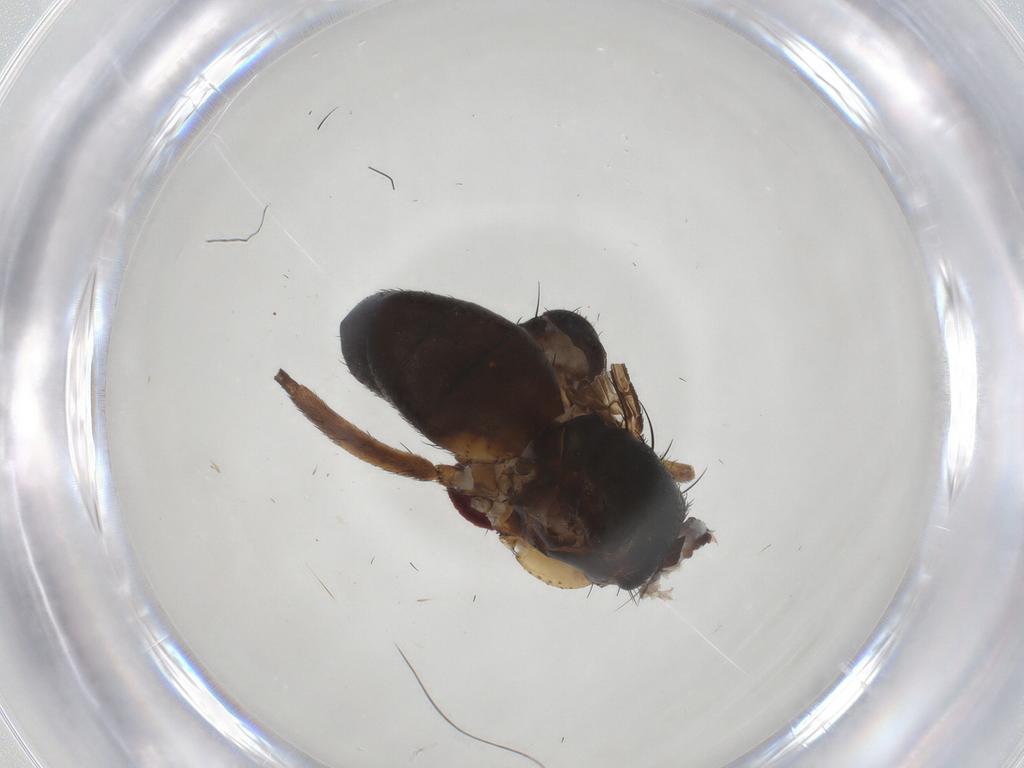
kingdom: Animalia
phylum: Arthropoda
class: Insecta
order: Diptera
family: Tachinidae
